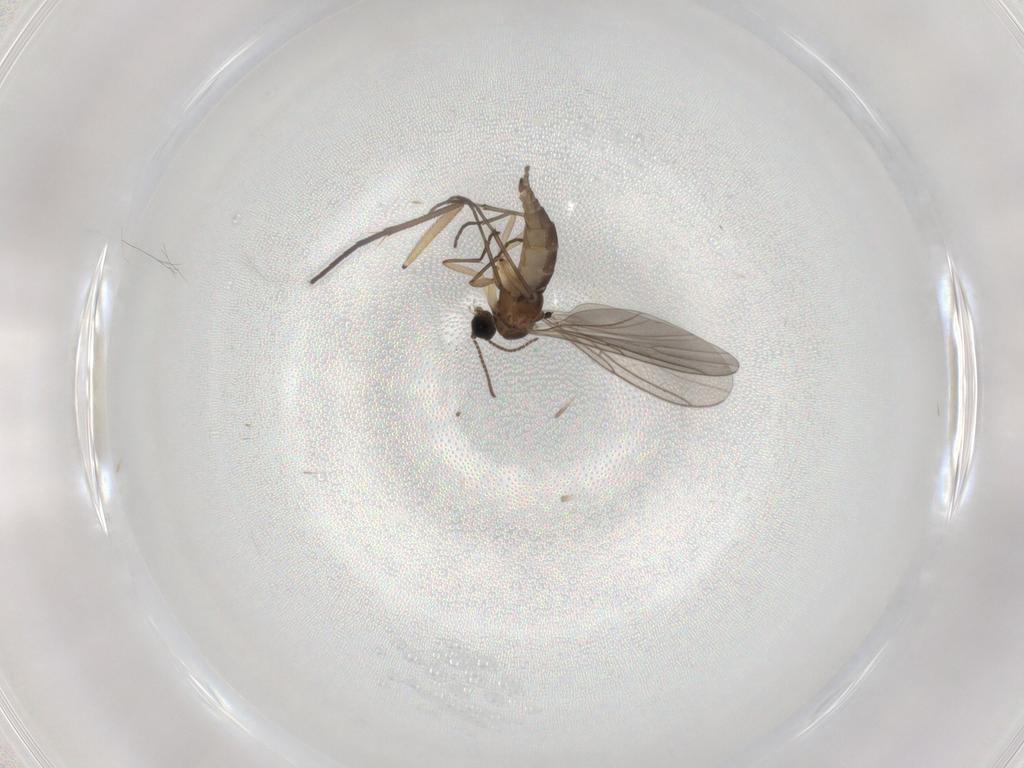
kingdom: Animalia
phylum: Arthropoda
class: Insecta
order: Diptera
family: Sciaridae
